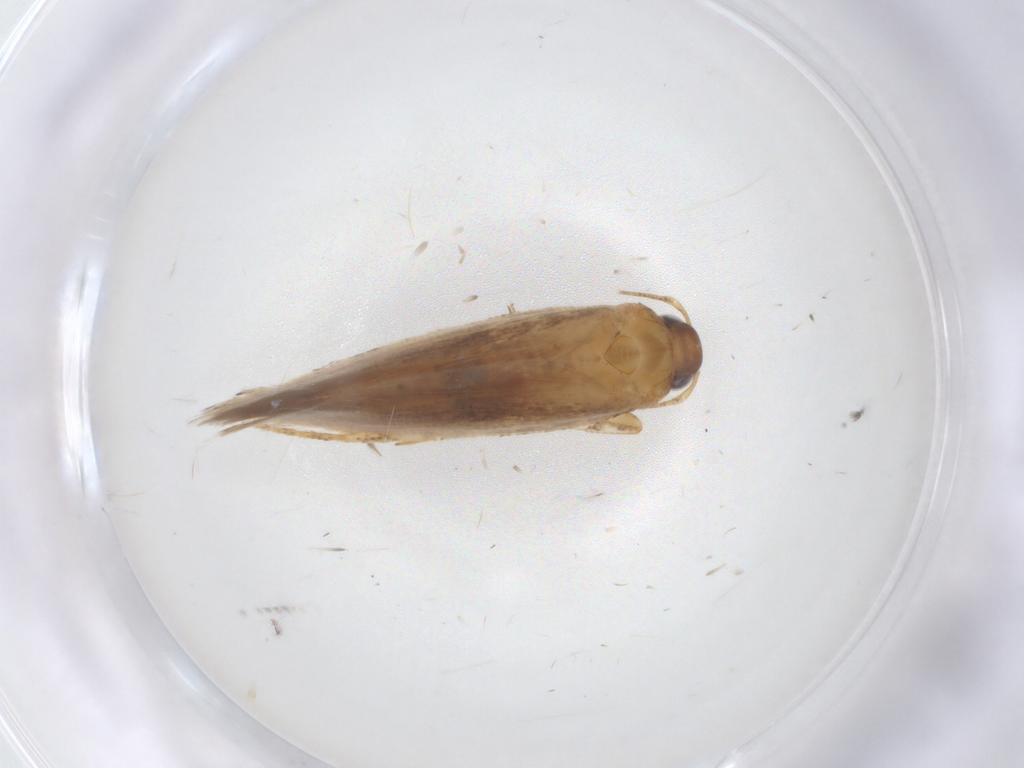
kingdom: Animalia
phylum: Arthropoda
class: Insecta
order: Lepidoptera
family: Gelechiidae
